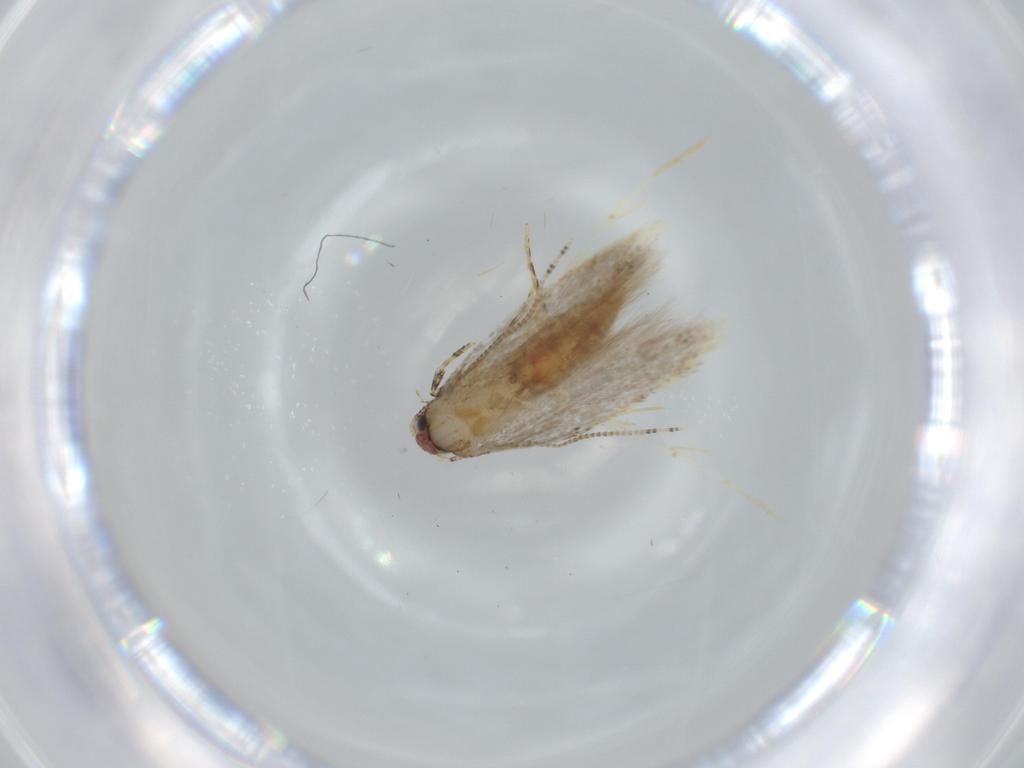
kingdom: Animalia
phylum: Arthropoda
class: Insecta
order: Lepidoptera
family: Tineidae
